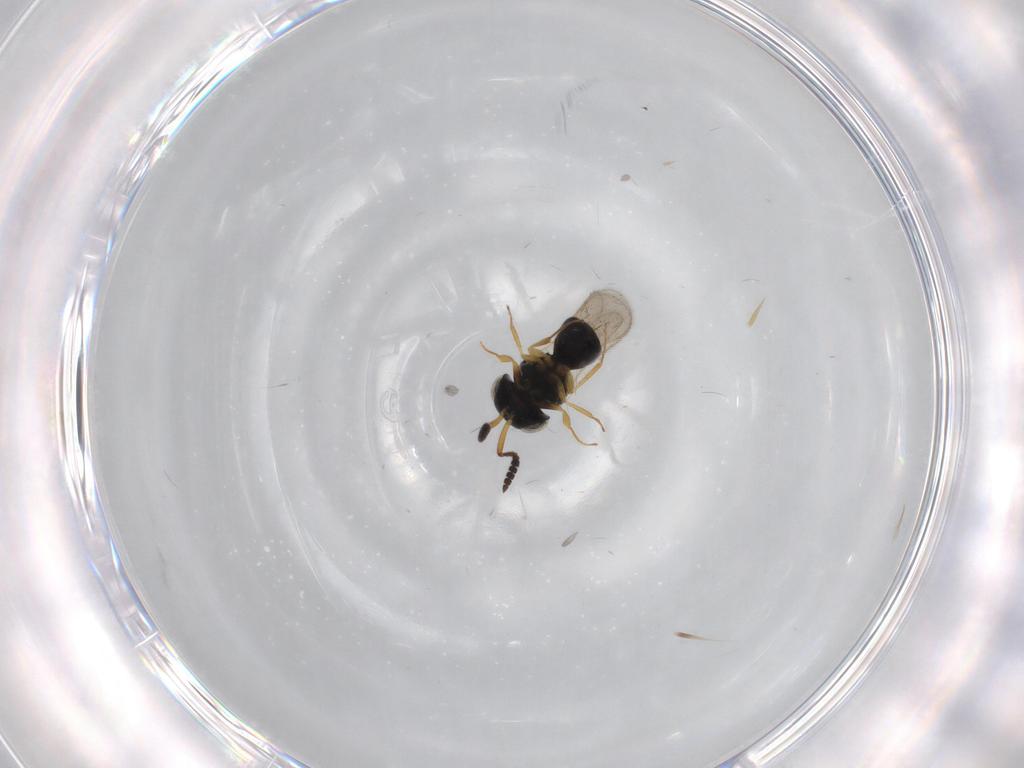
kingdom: Animalia
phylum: Arthropoda
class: Insecta
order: Hymenoptera
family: Scelionidae
